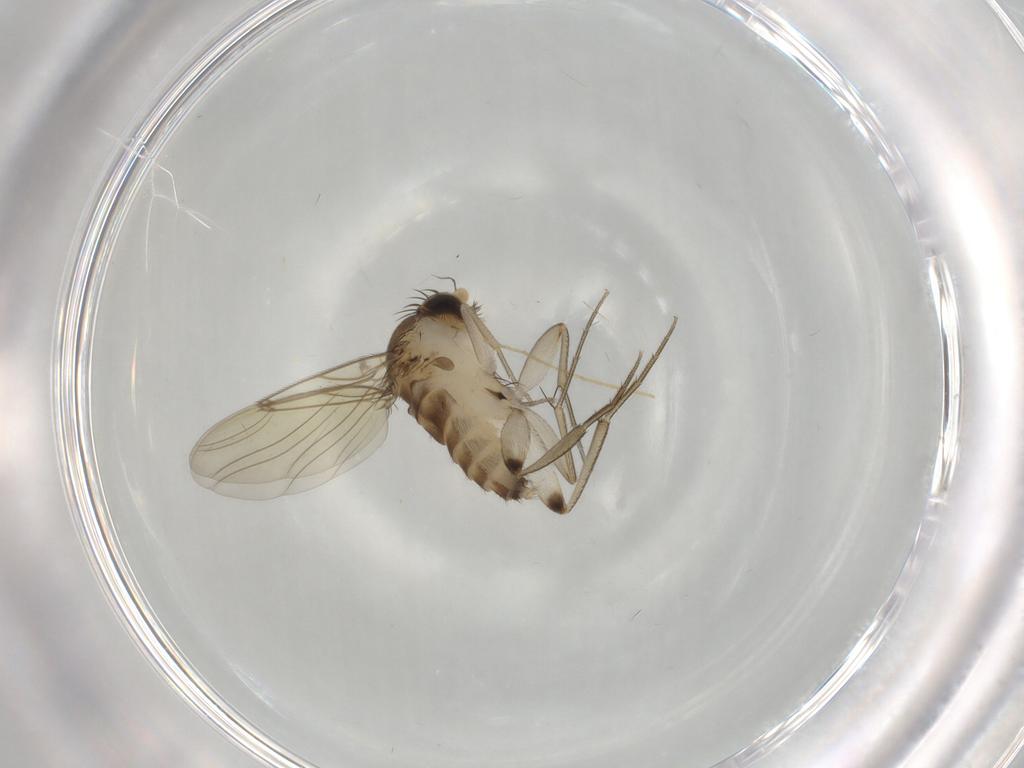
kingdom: Animalia
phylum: Arthropoda
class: Insecta
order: Diptera
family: Phoridae
